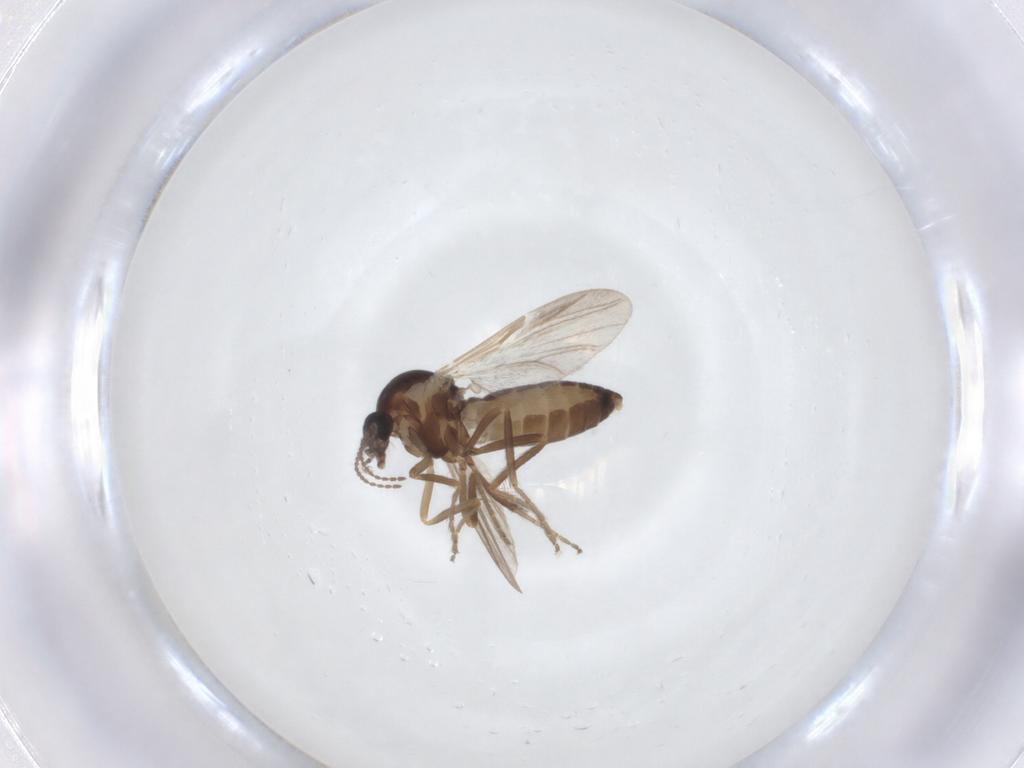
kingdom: Animalia
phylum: Arthropoda
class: Insecta
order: Diptera
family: Ceratopogonidae
